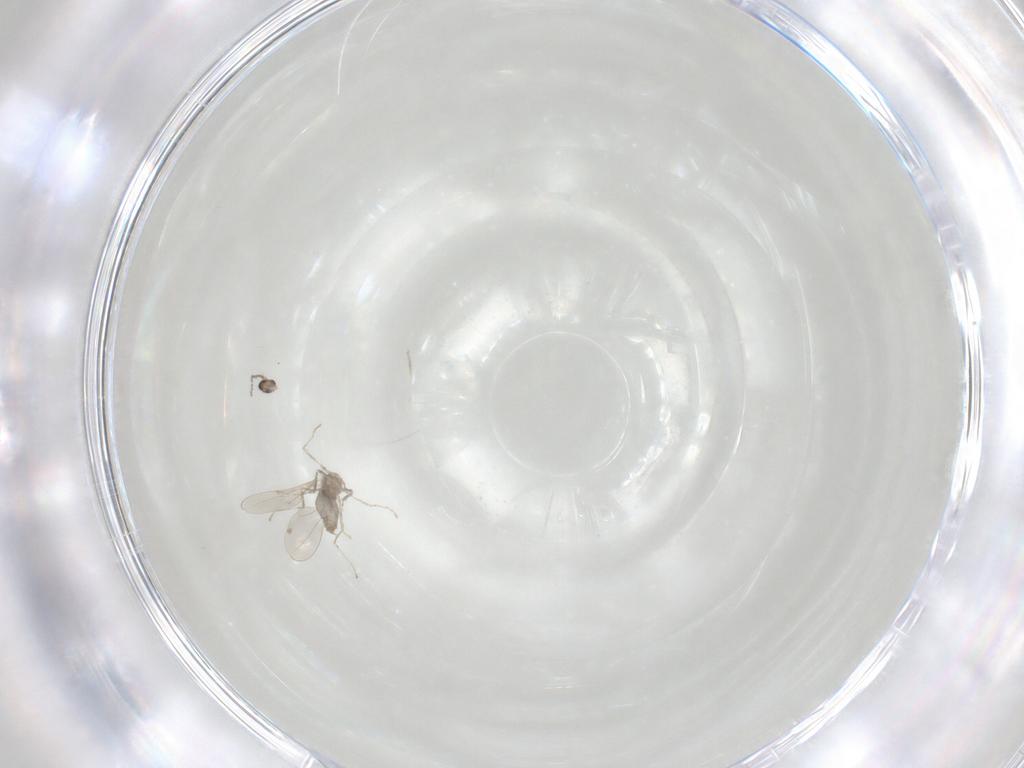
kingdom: Animalia
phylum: Arthropoda
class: Insecta
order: Diptera
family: Cecidomyiidae
